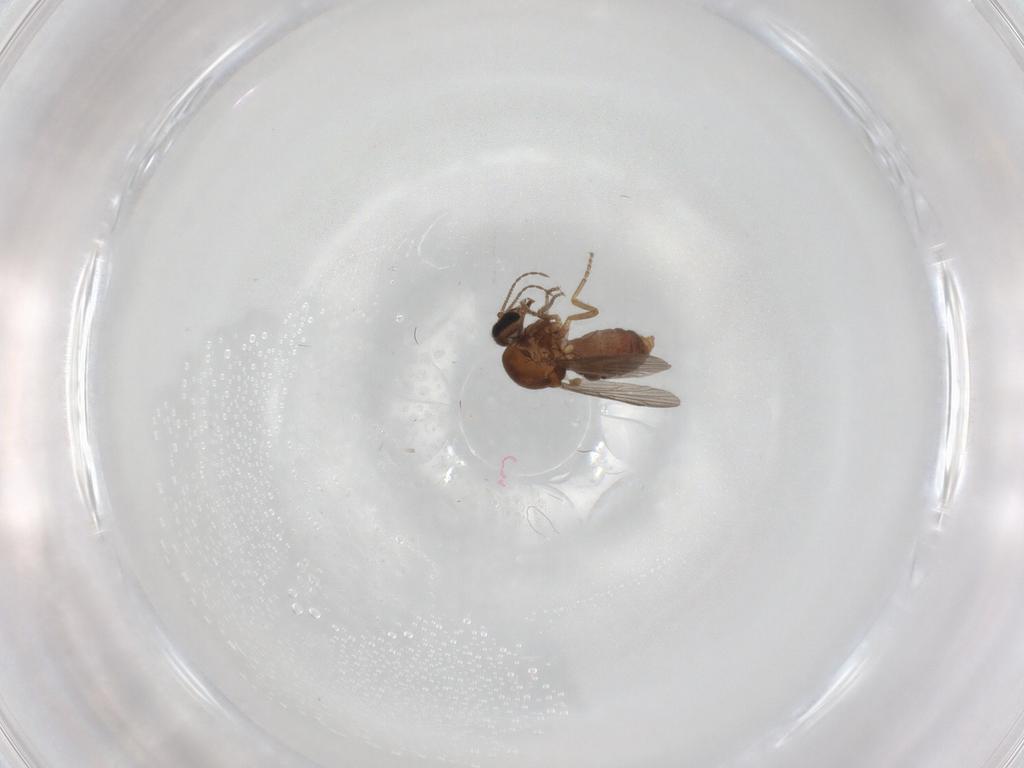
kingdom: Animalia
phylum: Arthropoda
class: Insecta
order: Diptera
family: Ceratopogonidae
